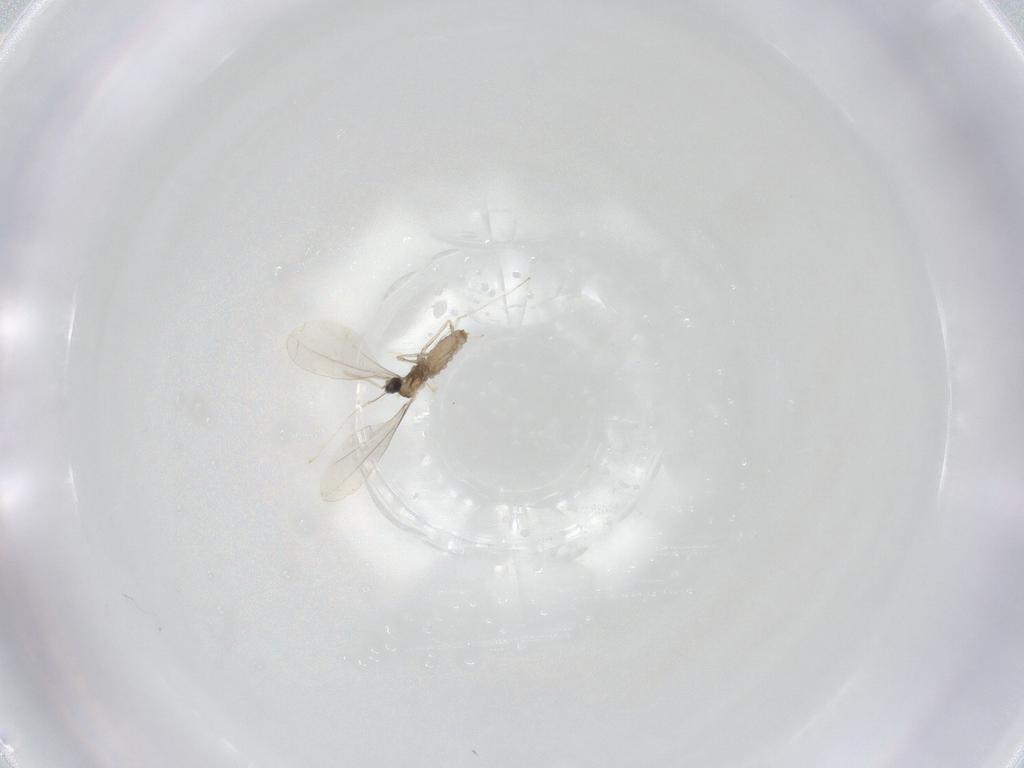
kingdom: Animalia
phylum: Arthropoda
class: Insecta
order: Diptera
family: Cecidomyiidae
